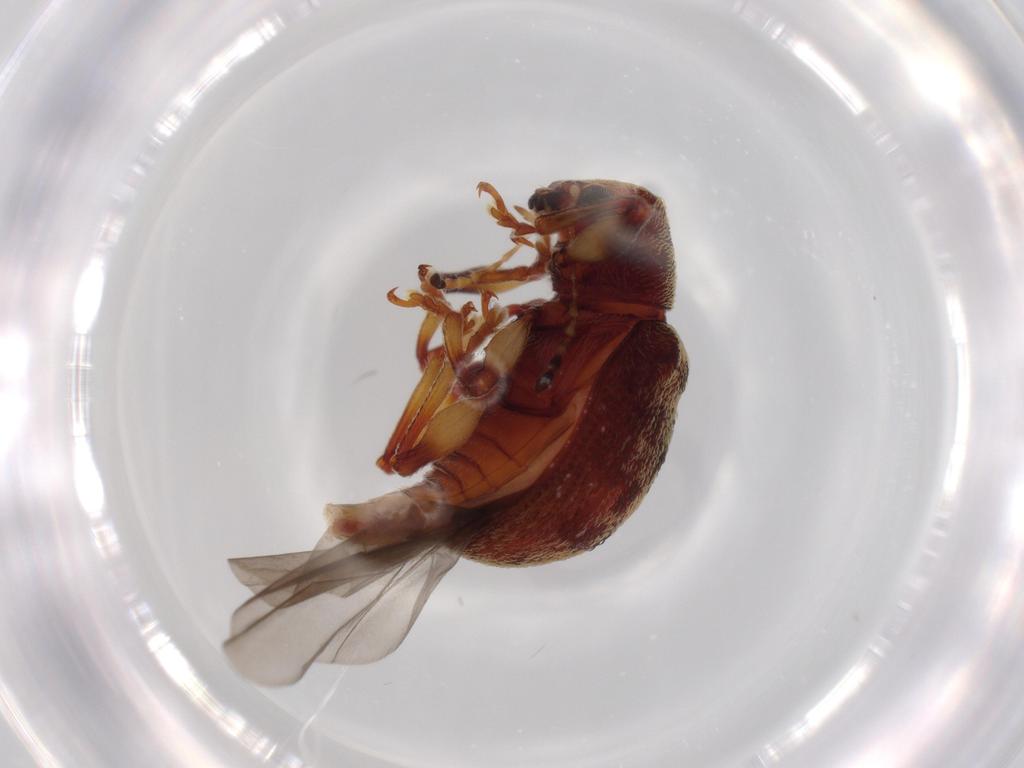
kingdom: Animalia
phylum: Arthropoda
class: Insecta
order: Coleoptera
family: Chrysomelidae
